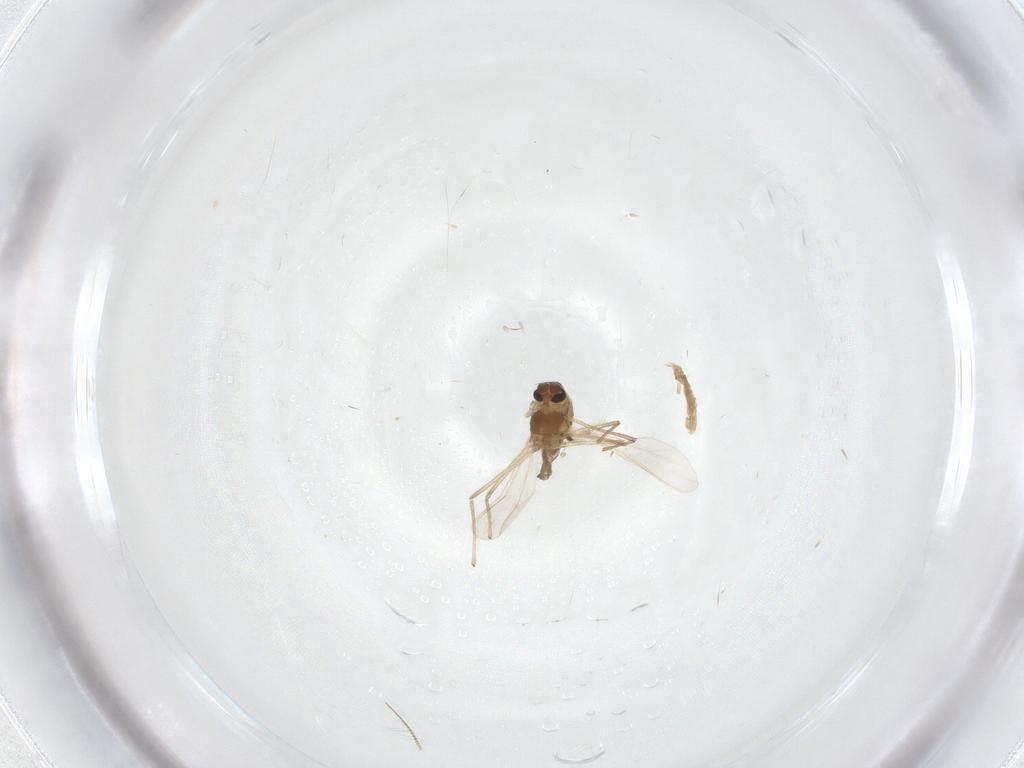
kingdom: Animalia
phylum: Arthropoda
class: Insecta
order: Diptera
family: Chironomidae
